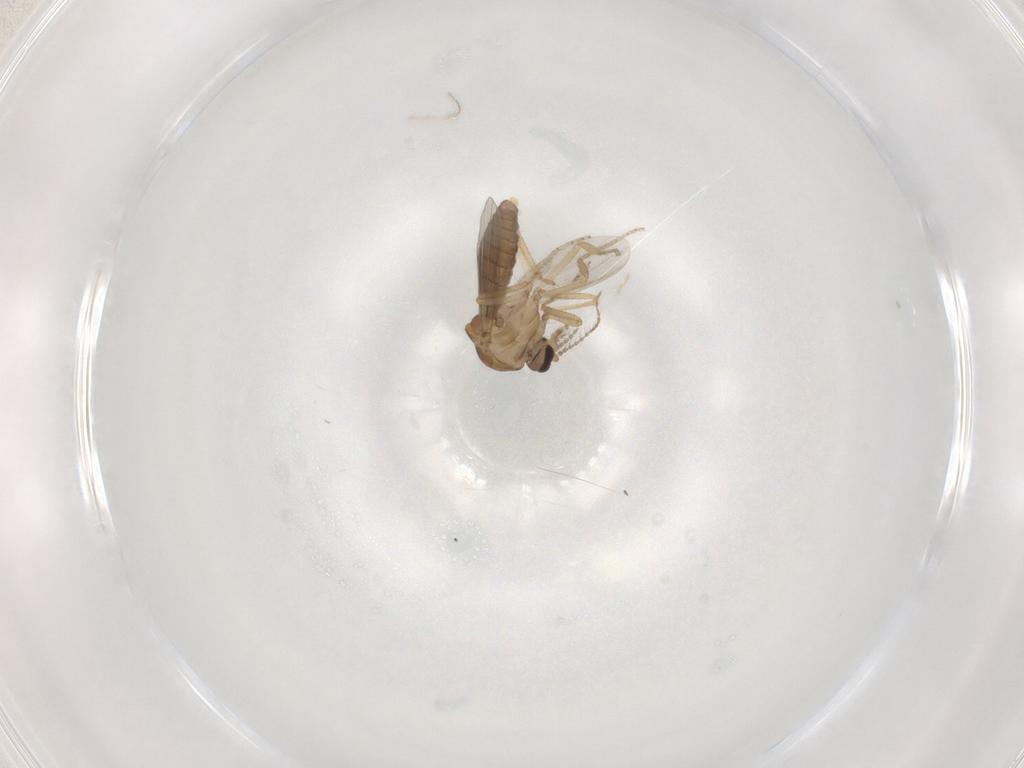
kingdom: Animalia
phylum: Arthropoda
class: Insecta
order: Diptera
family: Ceratopogonidae
